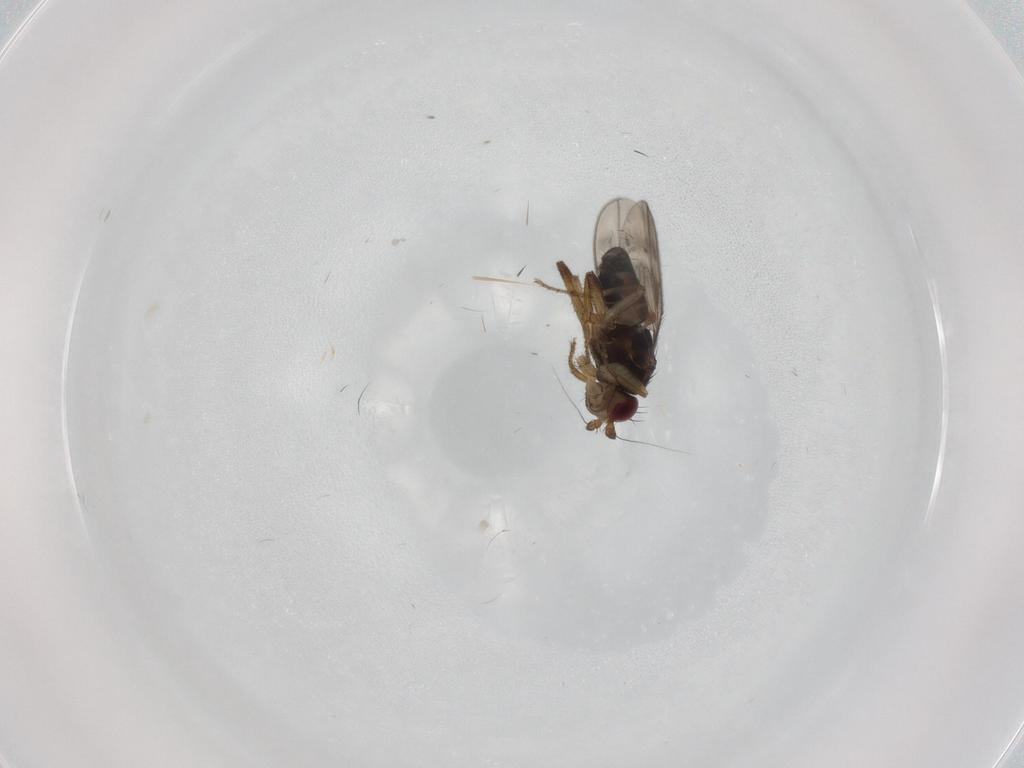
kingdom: Animalia
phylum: Arthropoda
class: Insecta
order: Diptera
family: Sphaeroceridae
